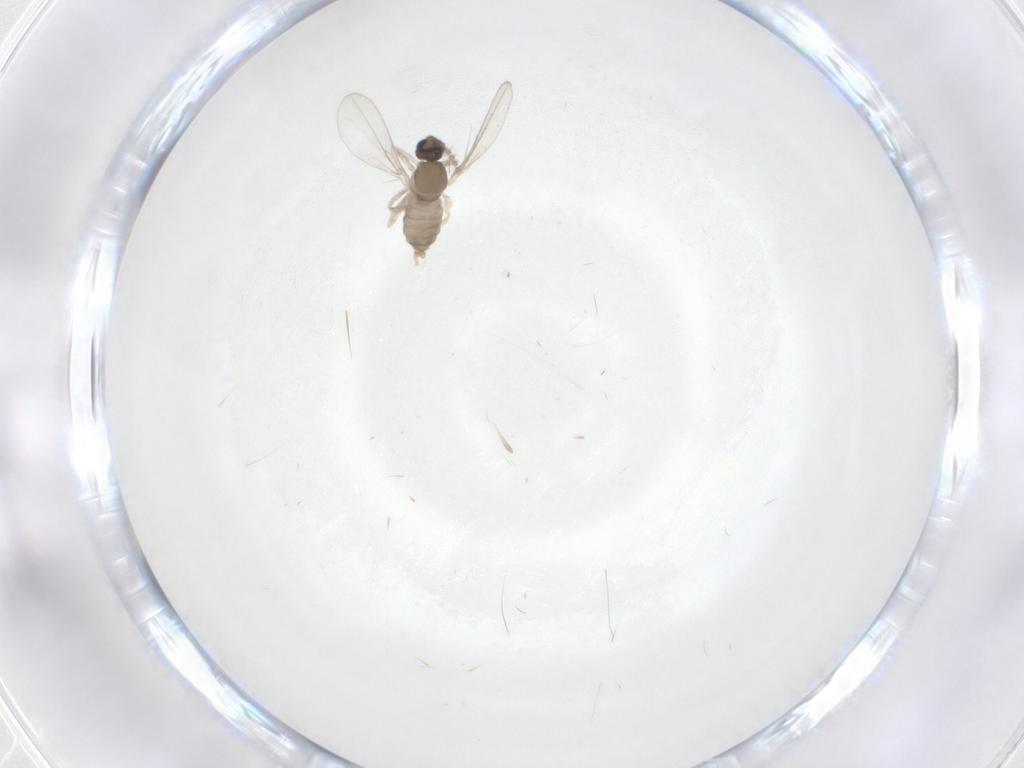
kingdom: Animalia
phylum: Arthropoda
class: Insecta
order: Diptera
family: Cecidomyiidae
